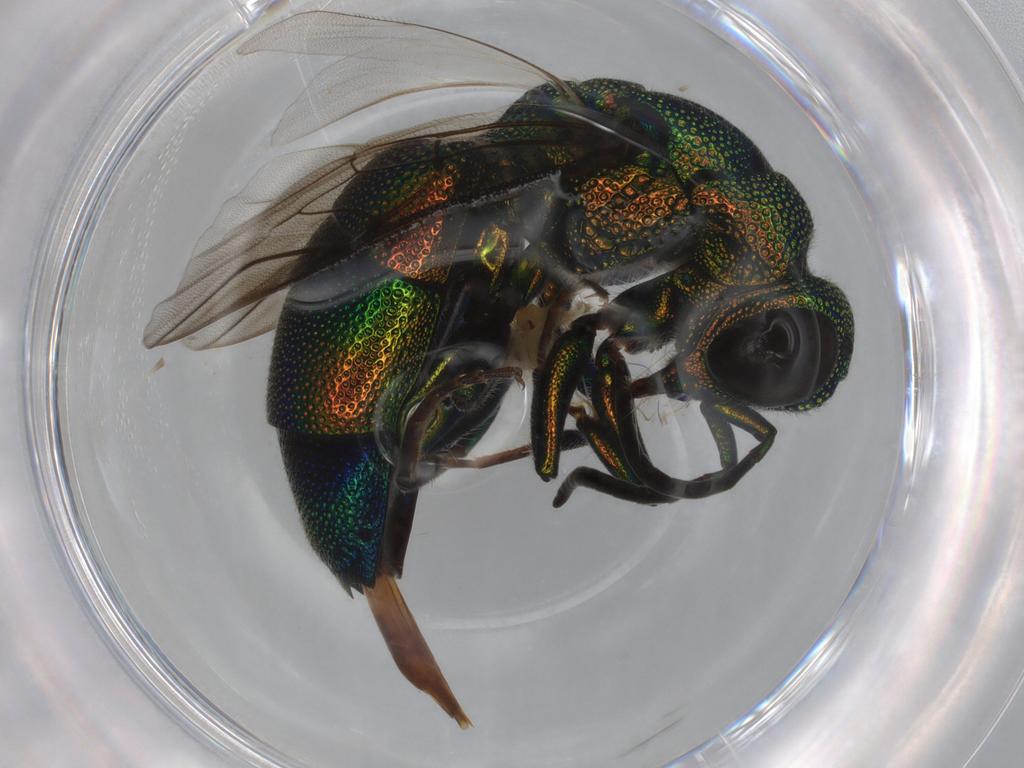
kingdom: Animalia
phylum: Arthropoda
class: Insecta
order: Hymenoptera
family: Chrysididae
